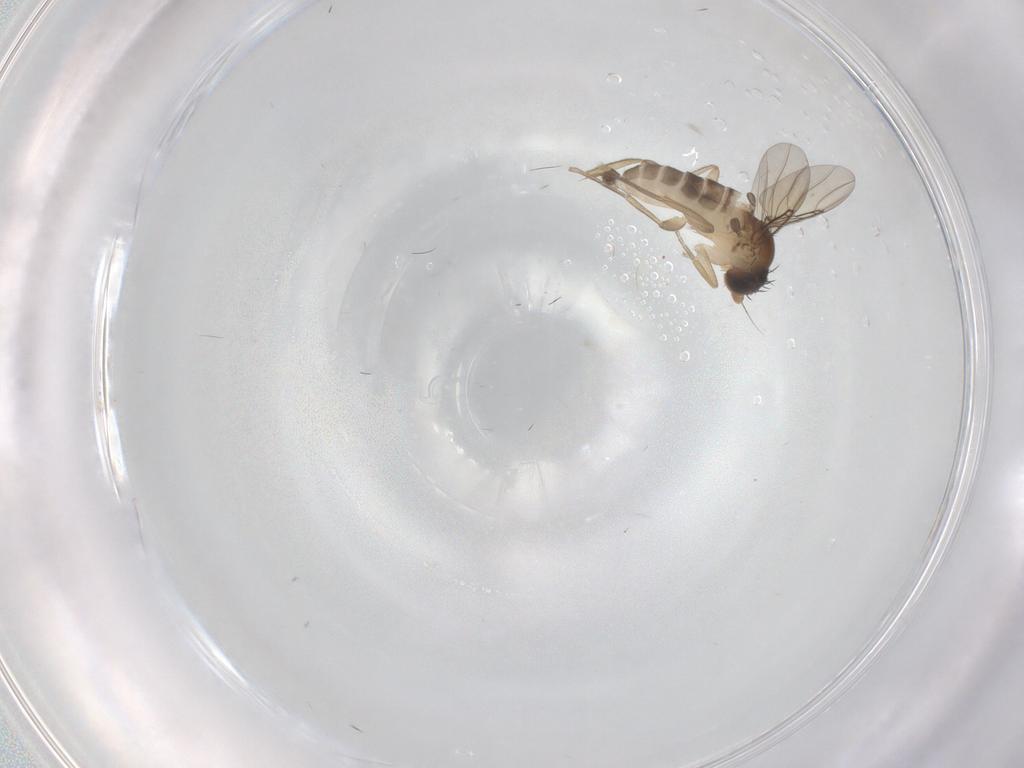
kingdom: Animalia
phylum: Arthropoda
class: Insecta
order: Diptera
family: Phoridae
